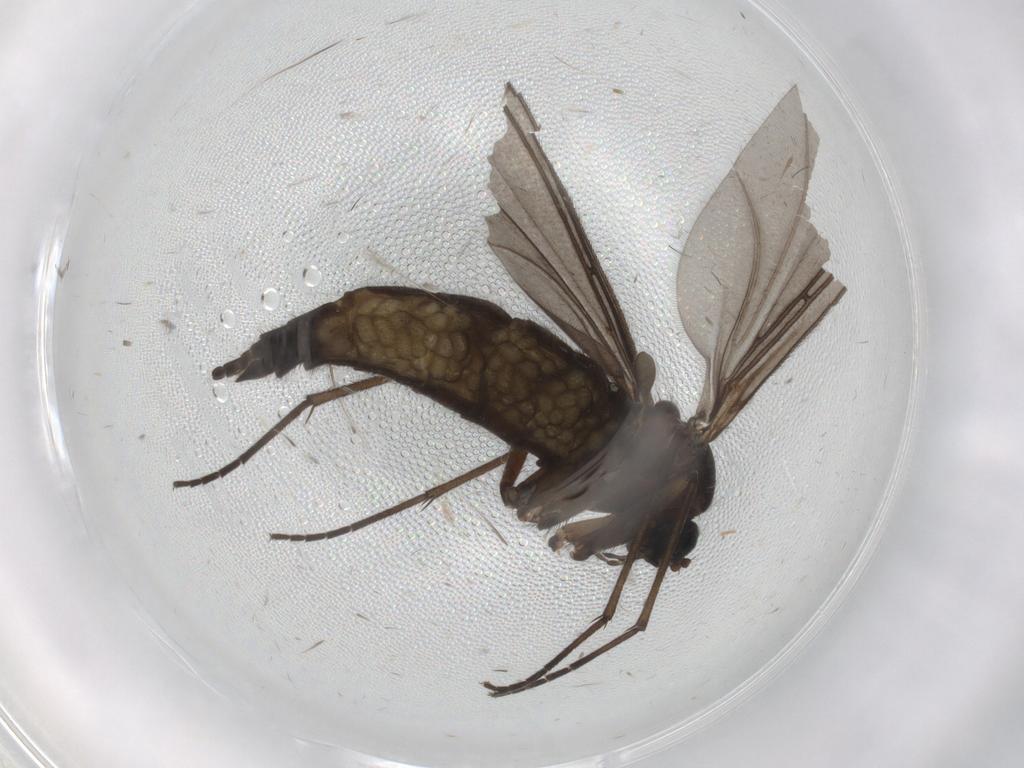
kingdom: Animalia
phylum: Arthropoda
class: Insecta
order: Diptera
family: Sciaridae
